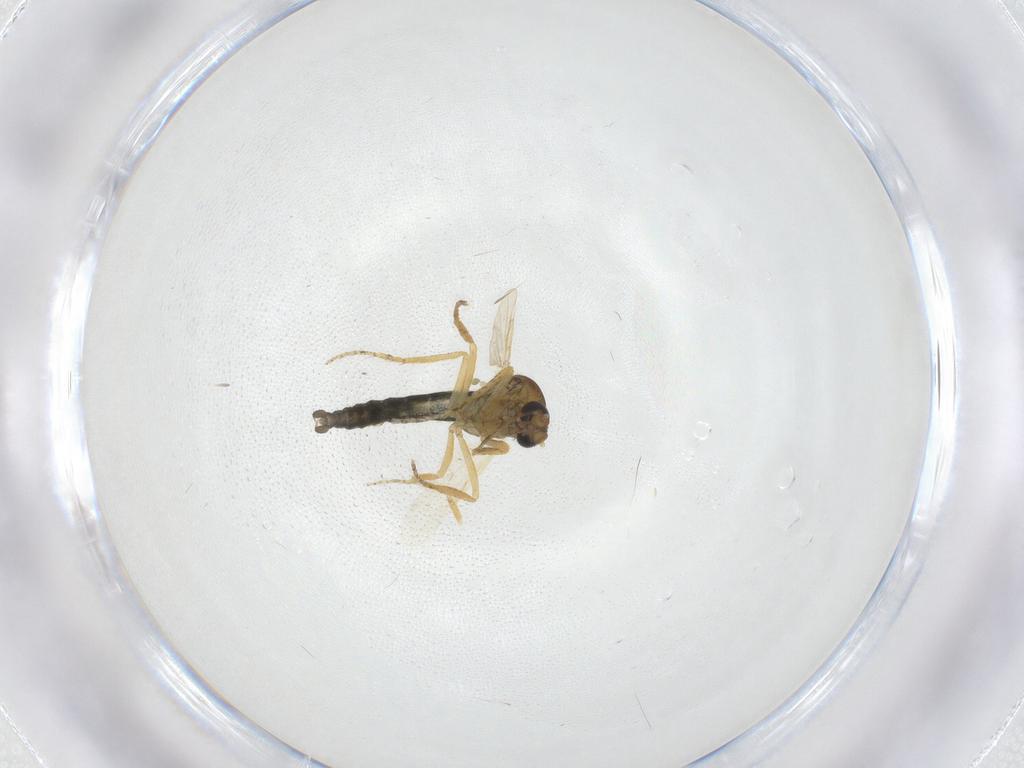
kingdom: Animalia
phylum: Arthropoda
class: Insecta
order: Diptera
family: Ceratopogonidae
